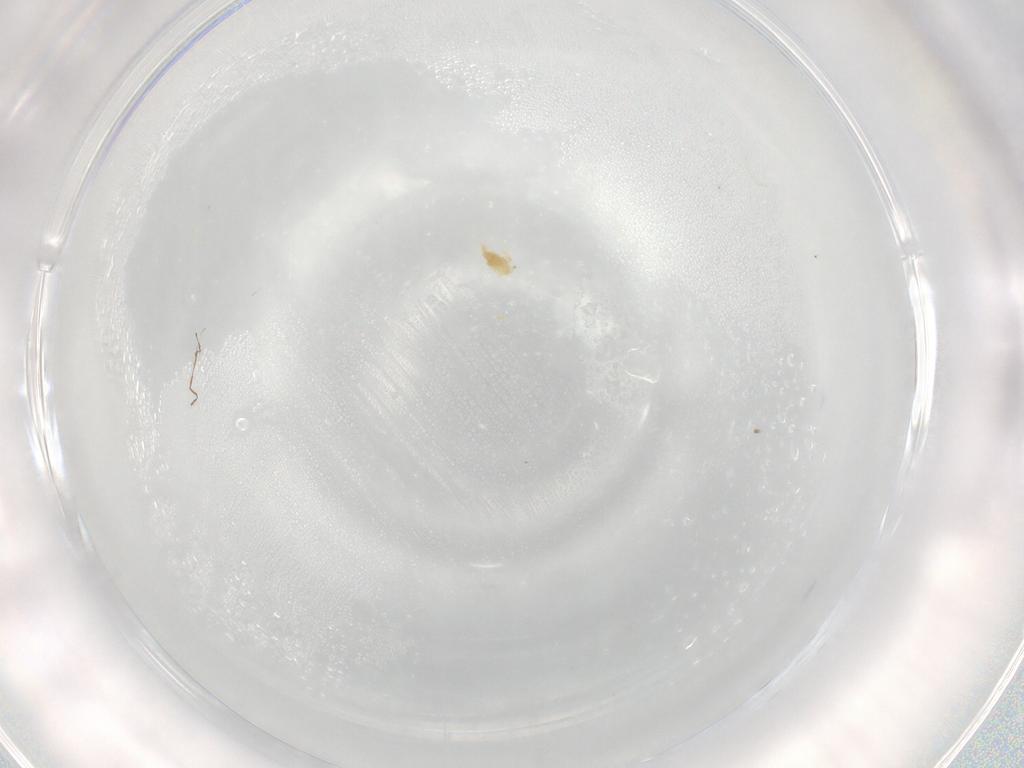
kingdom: Animalia
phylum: Arthropoda
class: Arachnida
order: Trombidiformes
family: Eupodidae
